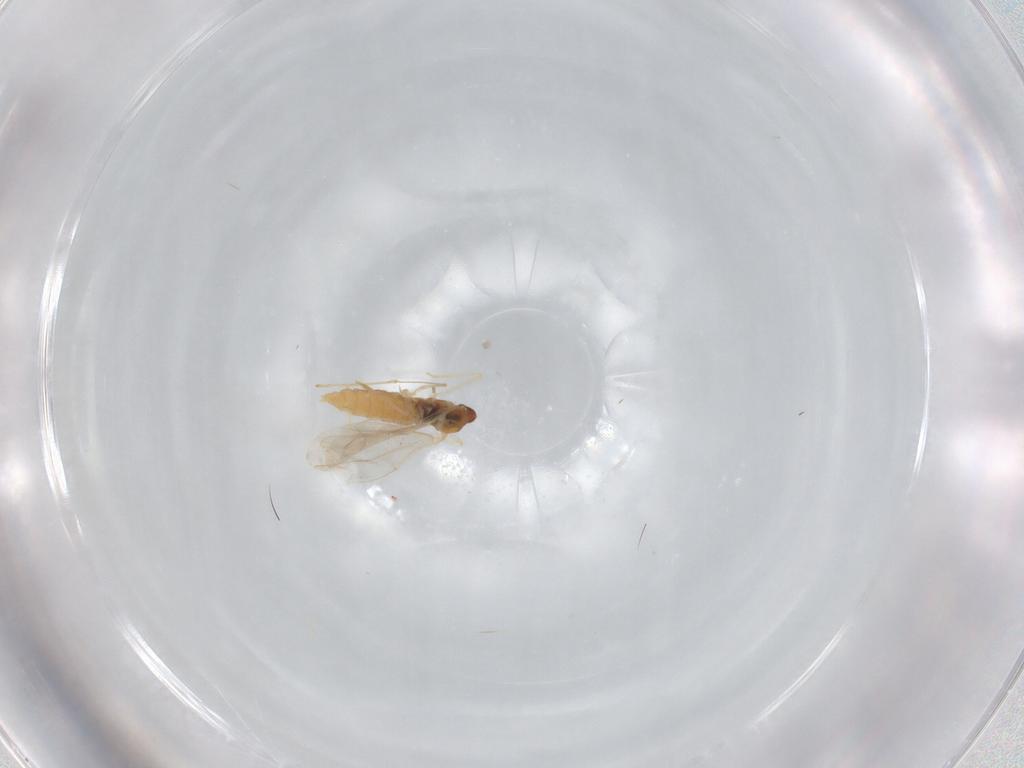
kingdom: Animalia
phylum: Arthropoda
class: Insecta
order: Diptera
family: Cecidomyiidae
